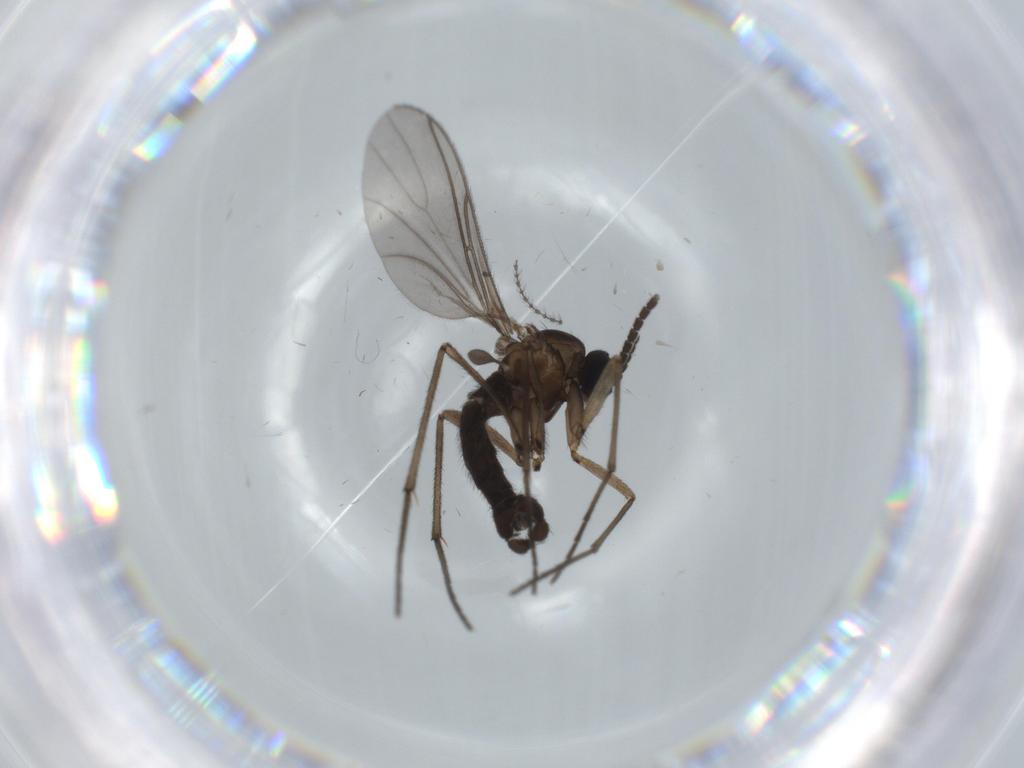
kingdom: Animalia
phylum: Arthropoda
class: Insecta
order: Diptera
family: Sciaridae
